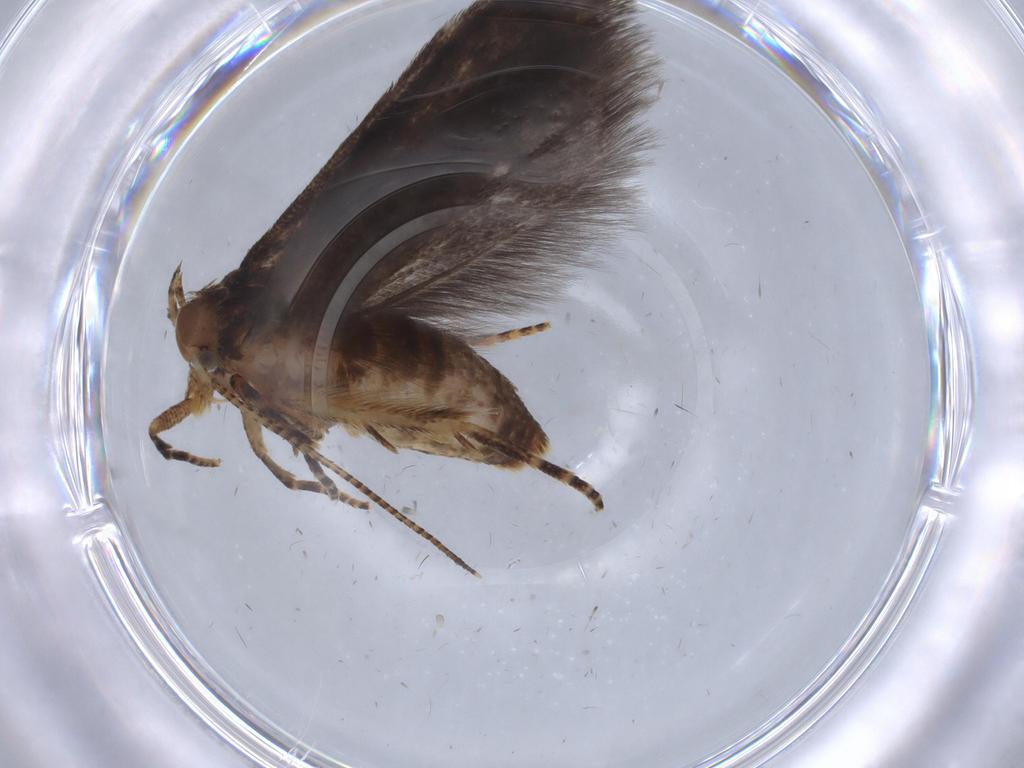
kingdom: Animalia
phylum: Arthropoda
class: Insecta
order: Lepidoptera
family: Gelechiidae
